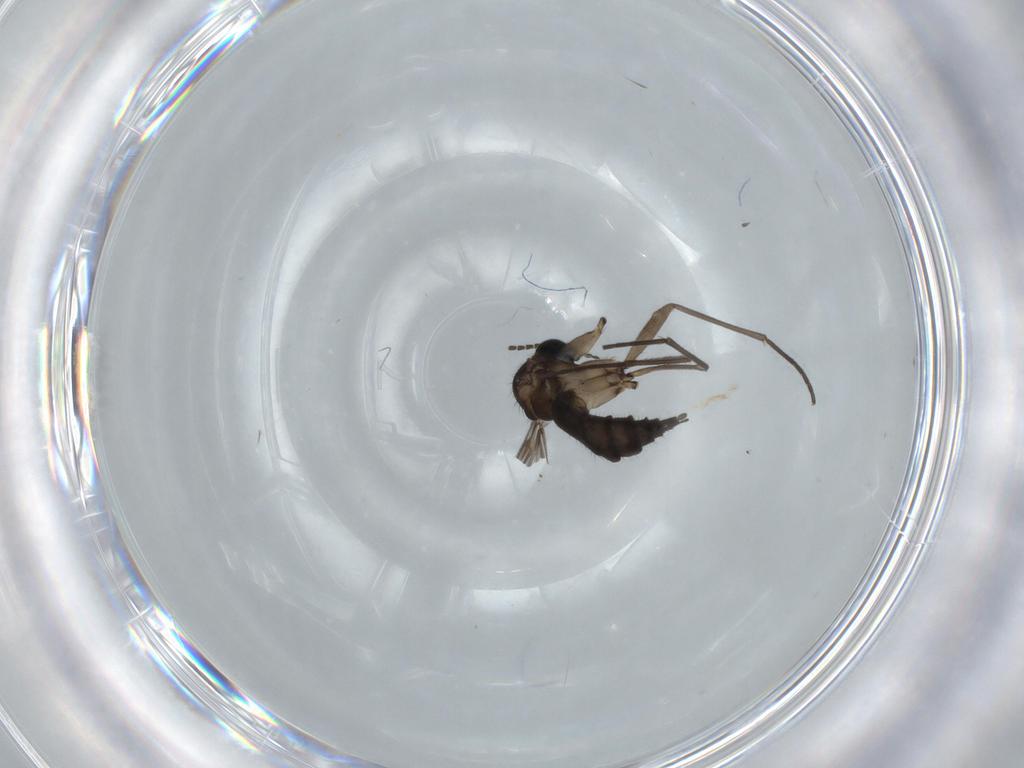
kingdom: Animalia
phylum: Arthropoda
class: Insecta
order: Diptera
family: Sciaridae
